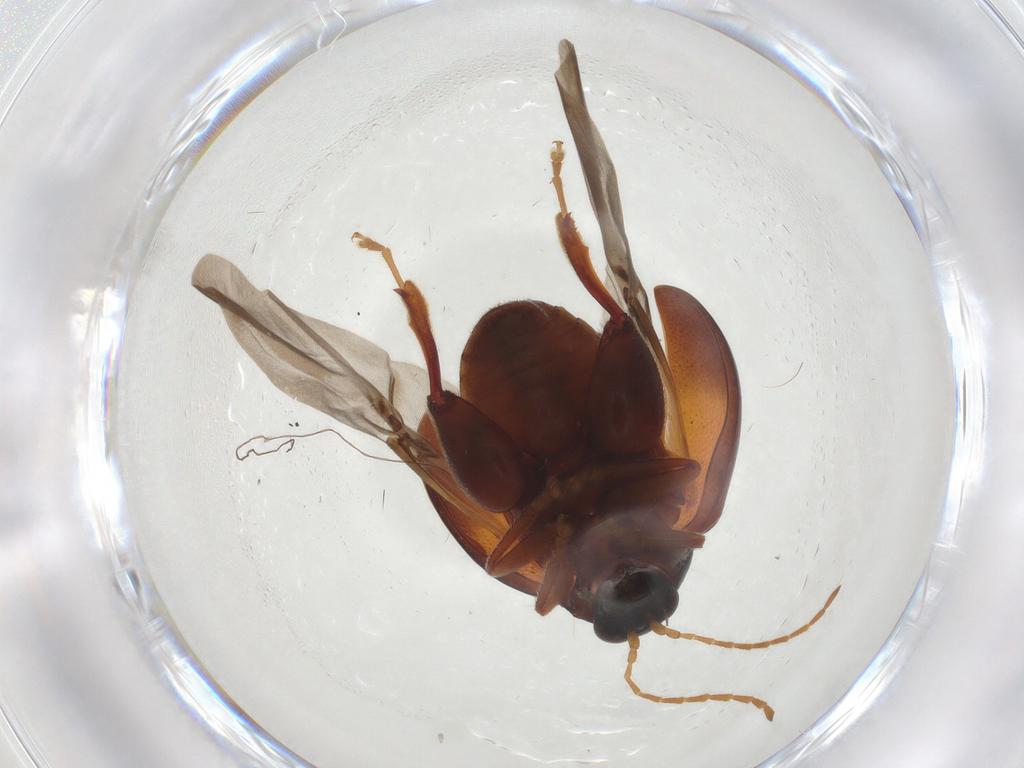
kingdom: Animalia
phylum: Arthropoda
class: Insecta
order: Coleoptera
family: Chrysomelidae
